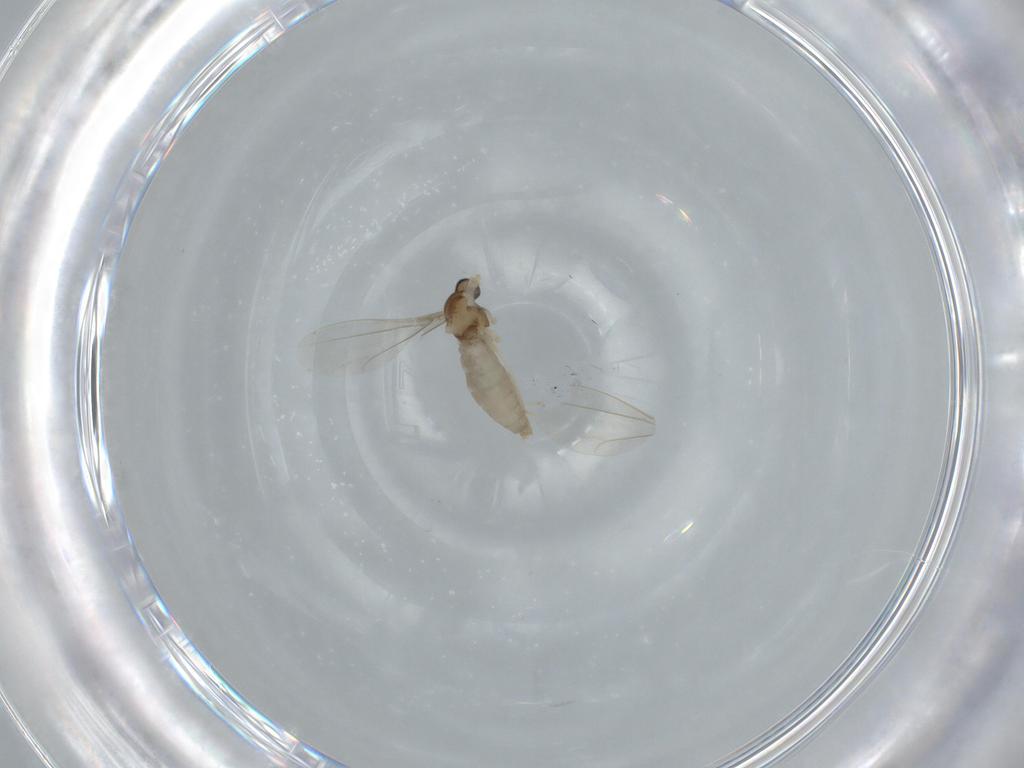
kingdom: Animalia
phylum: Arthropoda
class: Insecta
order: Diptera
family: Cecidomyiidae
